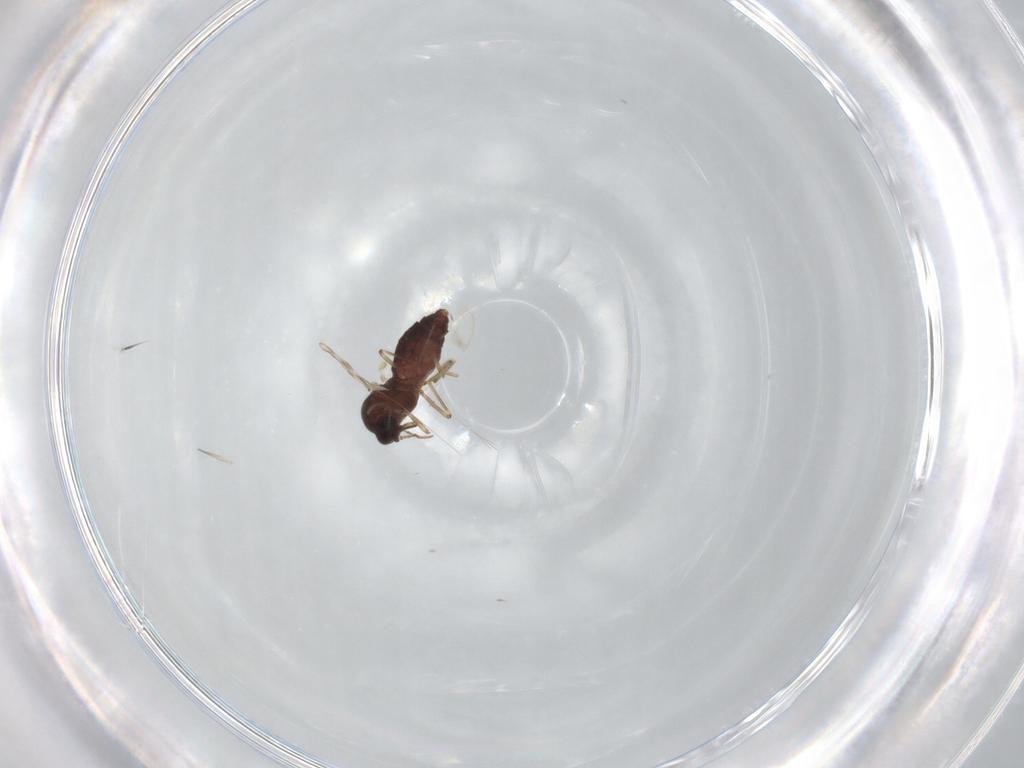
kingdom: Animalia
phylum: Arthropoda
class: Insecta
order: Diptera
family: Ceratopogonidae
